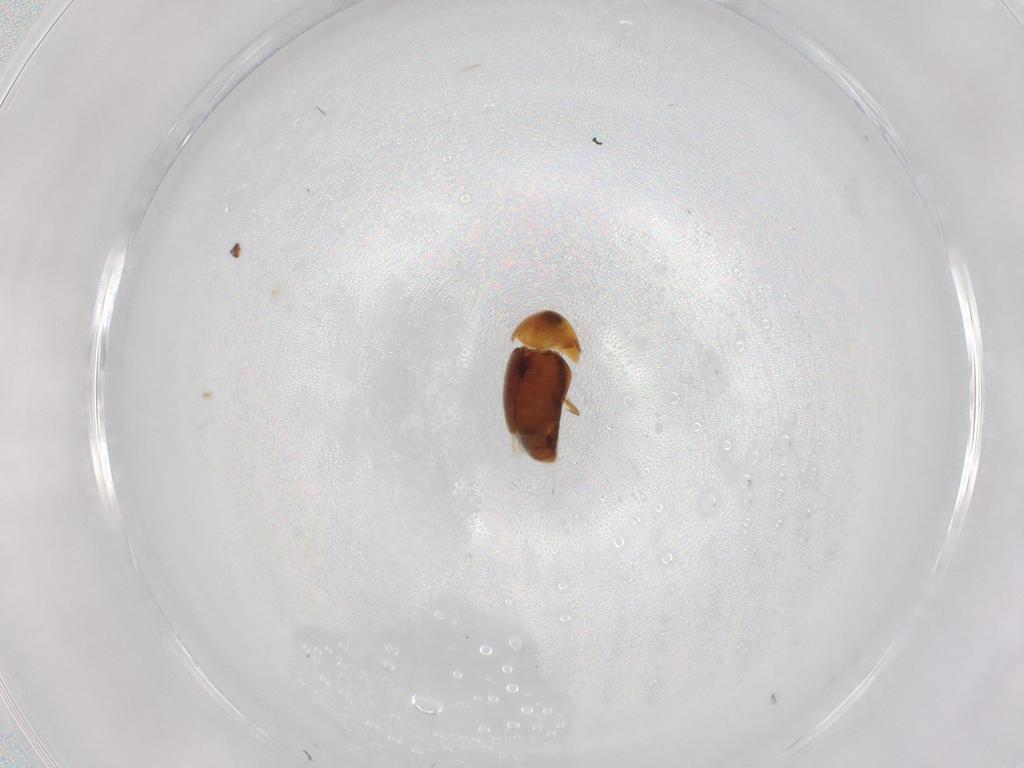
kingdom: Animalia
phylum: Arthropoda
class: Insecta
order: Coleoptera
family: Corylophidae
